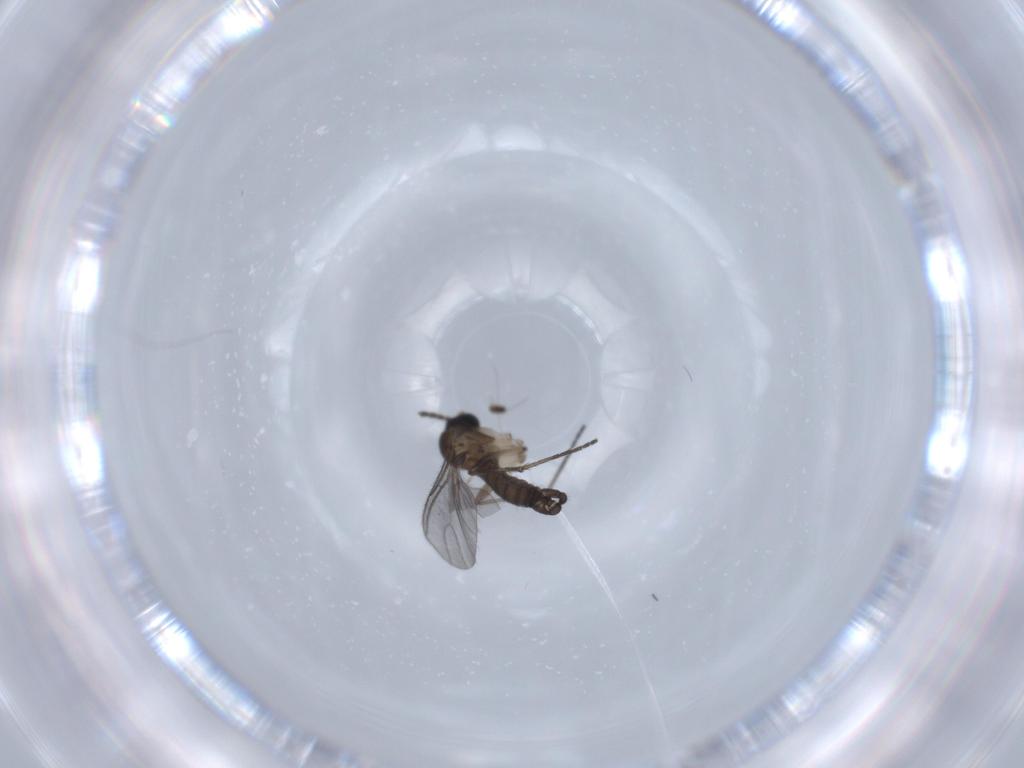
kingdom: Animalia
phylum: Arthropoda
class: Insecta
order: Diptera
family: Sciaridae
